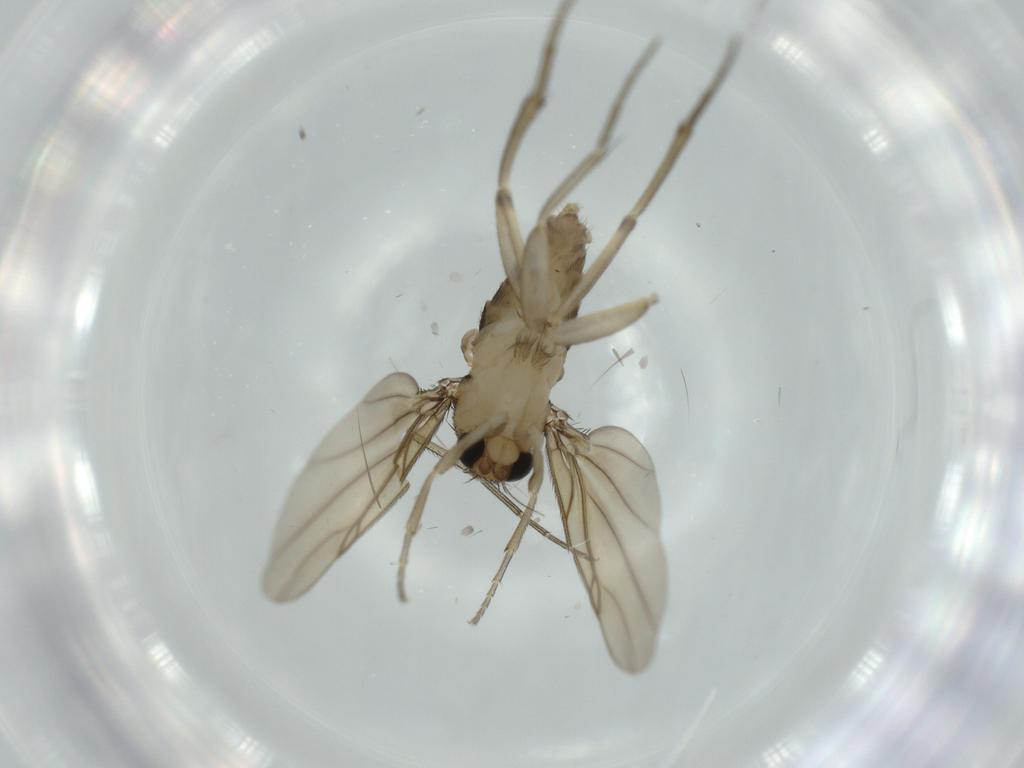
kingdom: Animalia
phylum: Arthropoda
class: Insecta
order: Diptera
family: Phoridae
